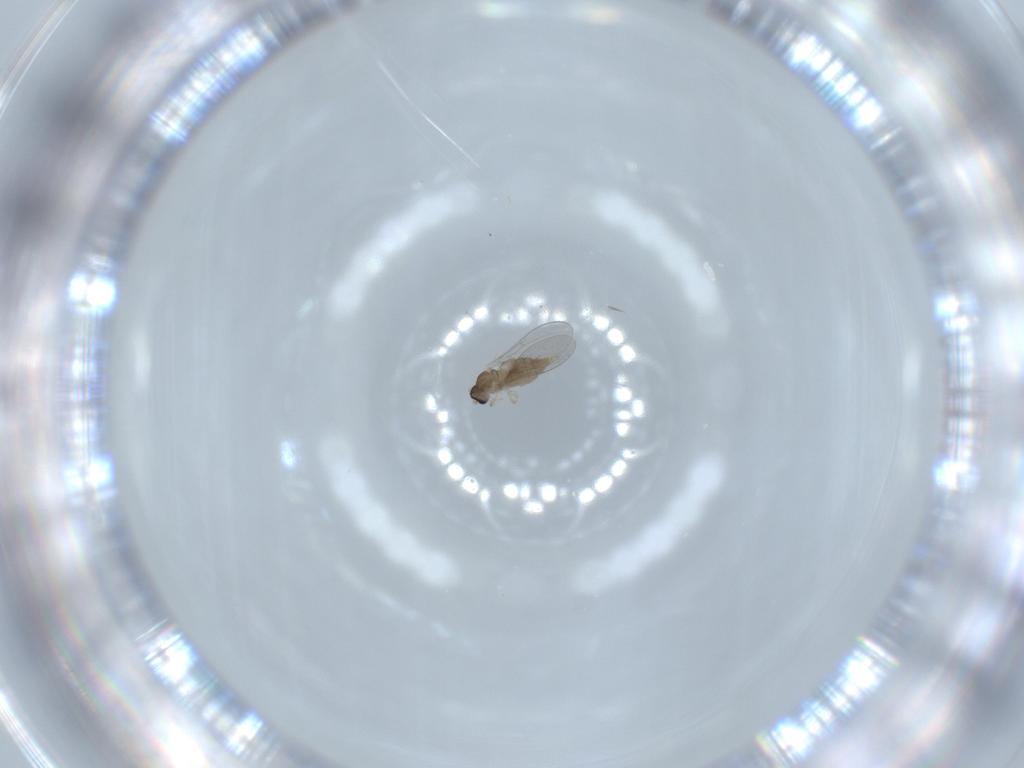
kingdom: Animalia
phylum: Arthropoda
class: Insecta
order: Diptera
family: Cecidomyiidae
